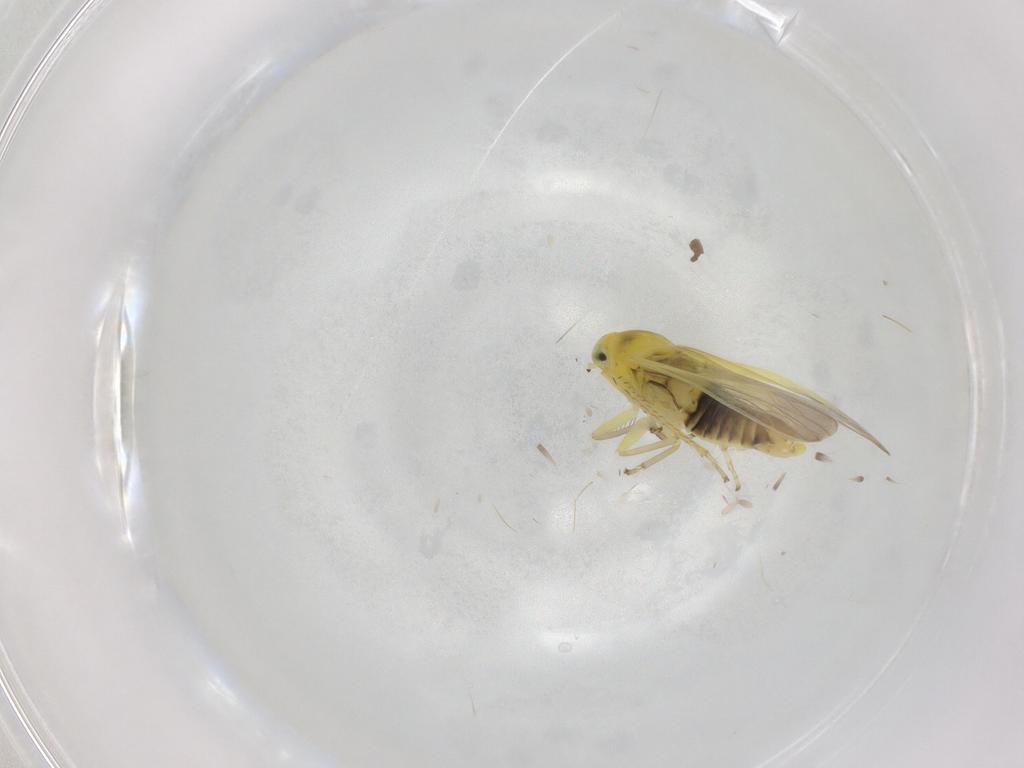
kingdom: Animalia
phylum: Arthropoda
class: Insecta
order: Hemiptera
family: Cicadellidae
